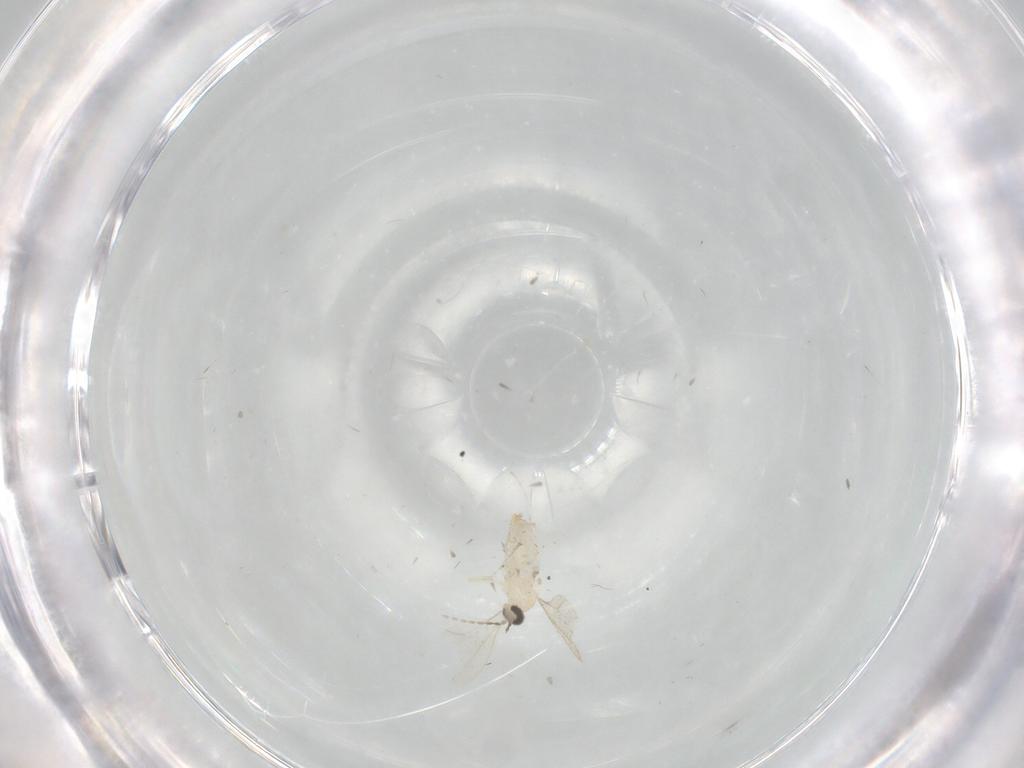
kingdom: Animalia
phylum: Arthropoda
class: Insecta
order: Diptera
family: Cecidomyiidae
